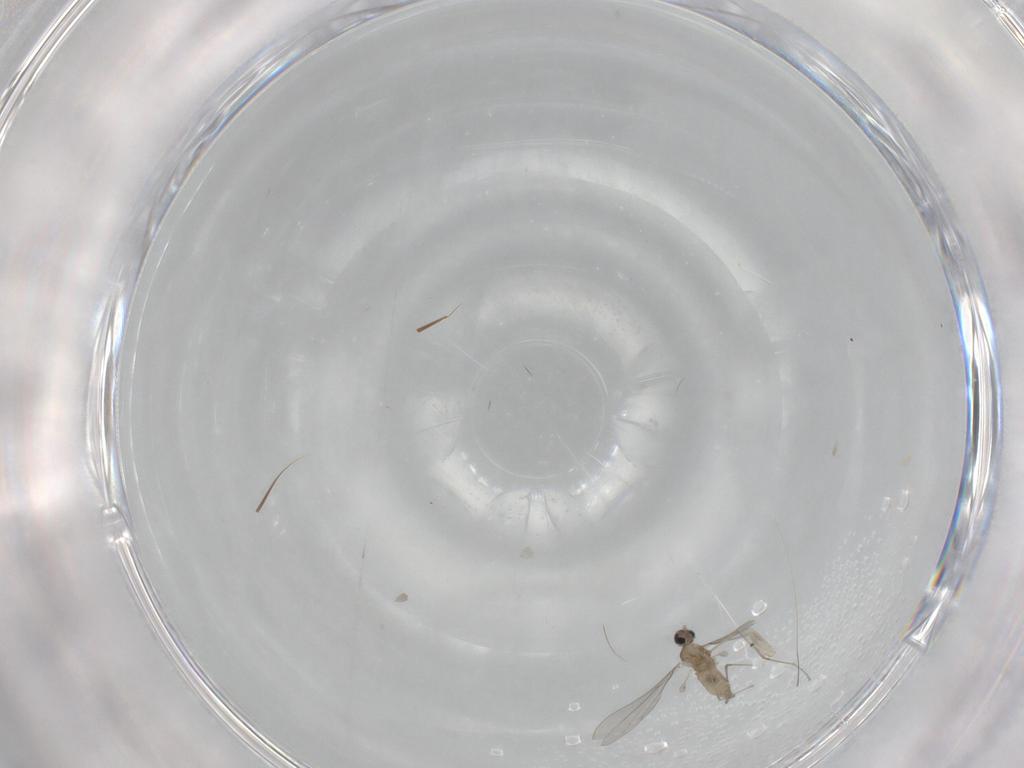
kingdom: Animalia
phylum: Arthropoda
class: Insecta
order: Diptera
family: Cecidomyiidae
